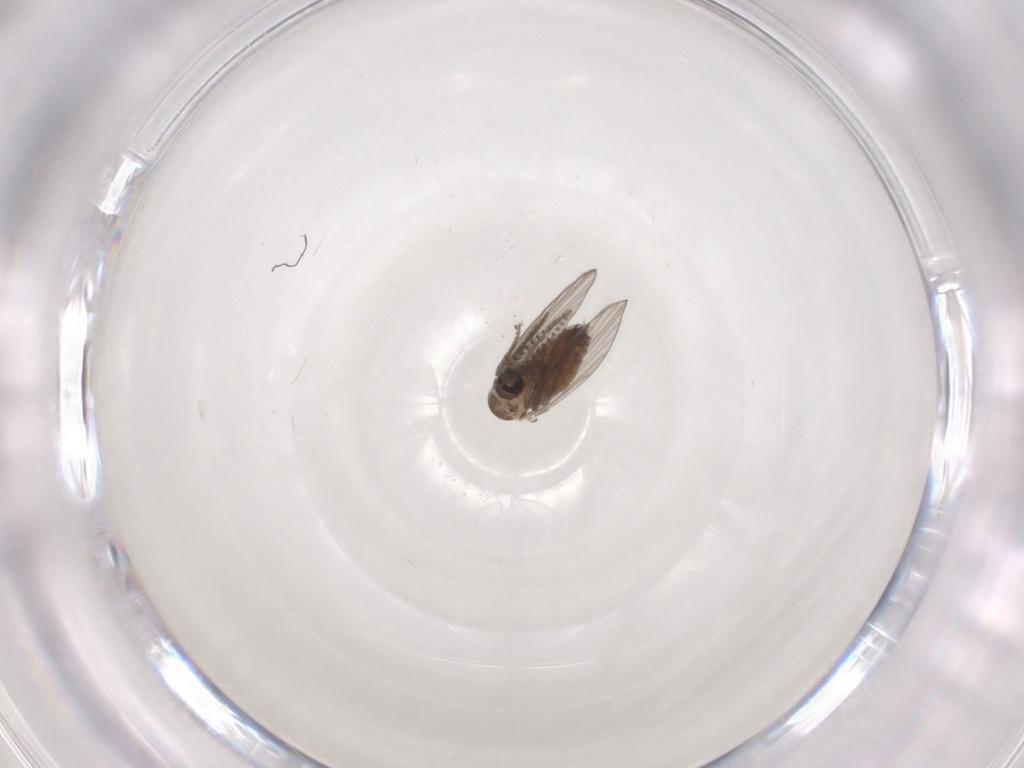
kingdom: Animalia
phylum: Arthropoda
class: Insecta
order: Diptera
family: Psychodidae
